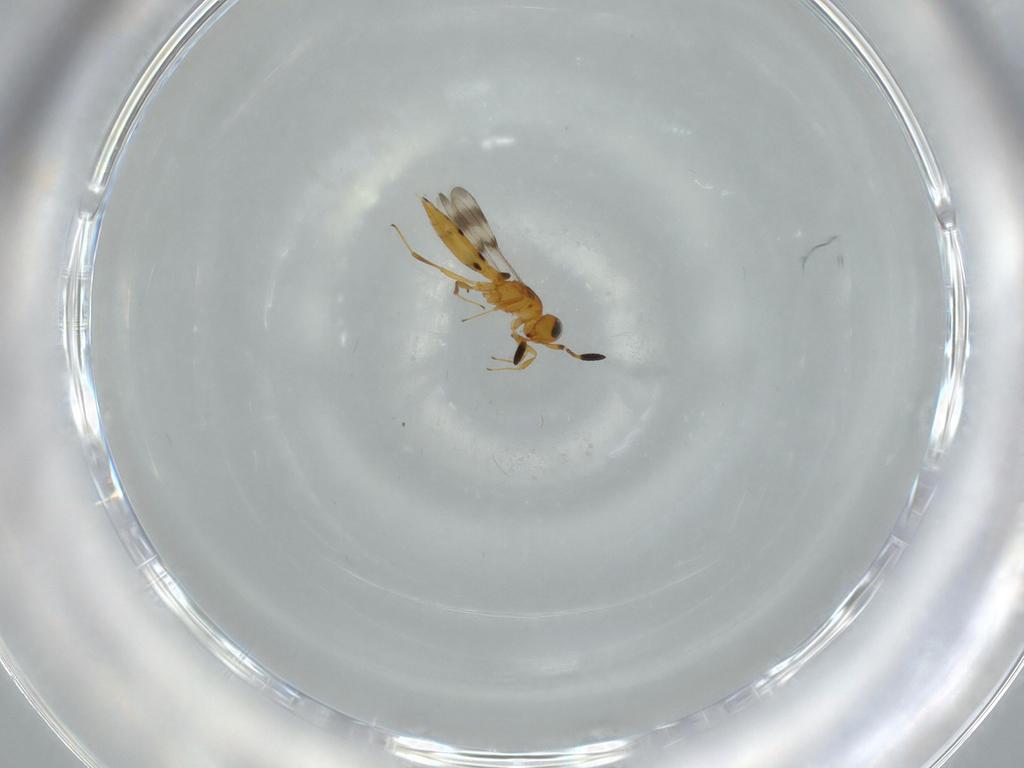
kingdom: Animalia
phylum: Arthropoda
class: Insecta
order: Hymenoptera
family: Scelionidae
